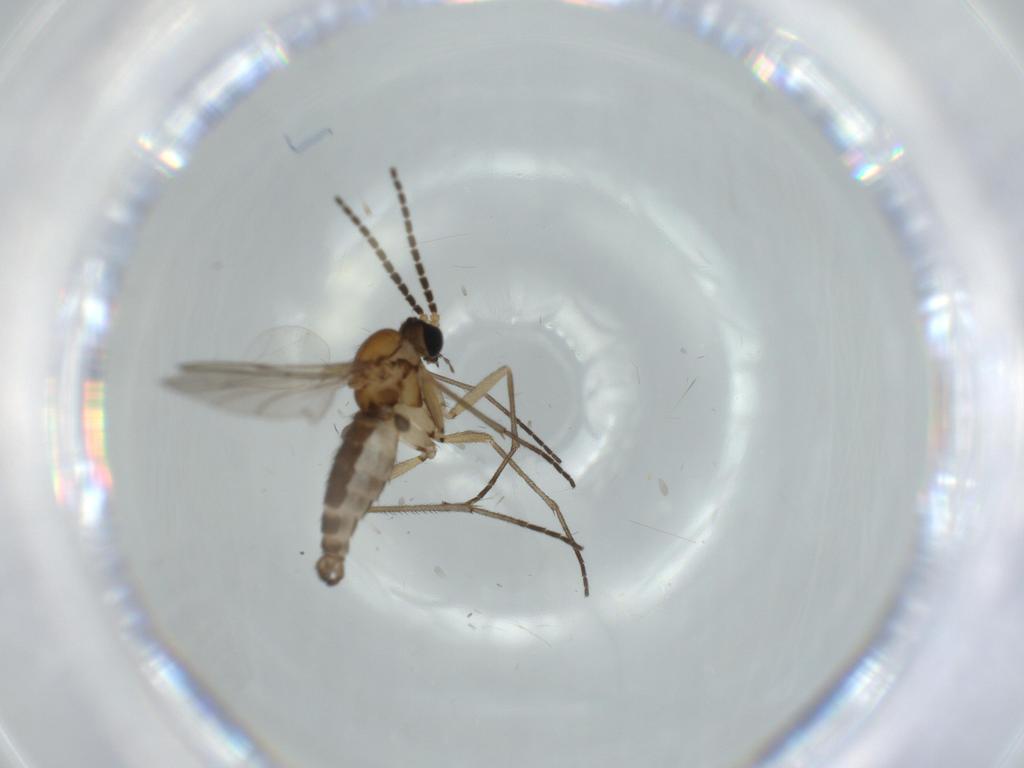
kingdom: Animalia
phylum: Arthropoda
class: Insecta
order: Diptera
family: Sciaridae
